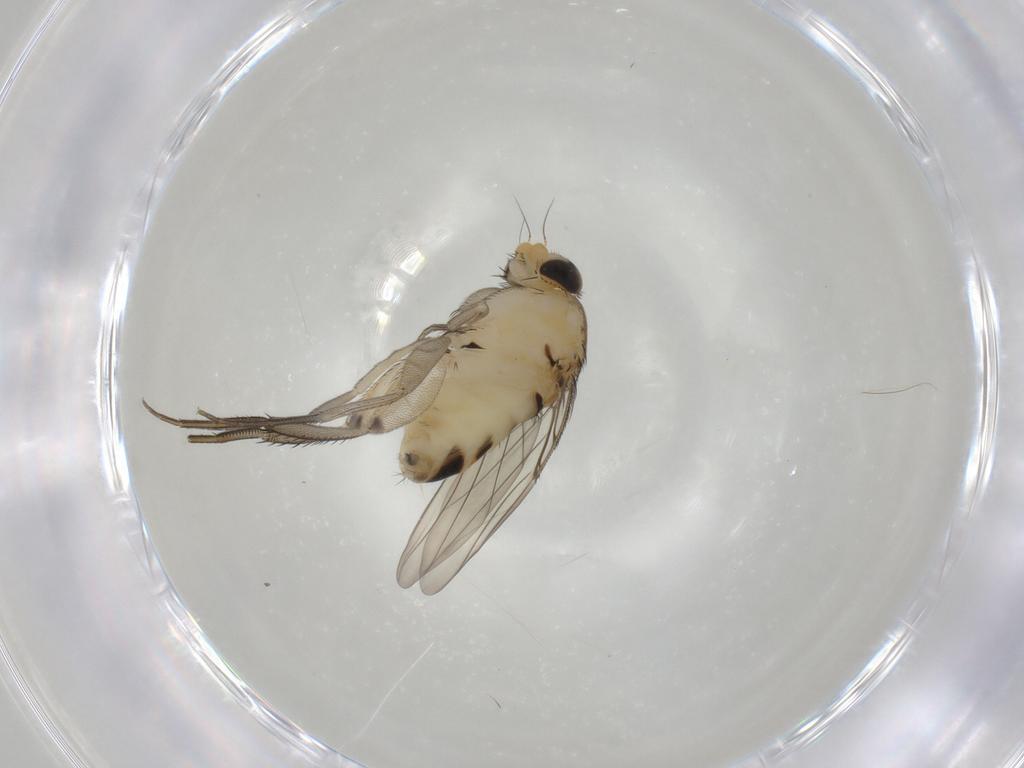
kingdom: Animalia
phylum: Arthropoda
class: Insecta
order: Diptera
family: Phoridae
